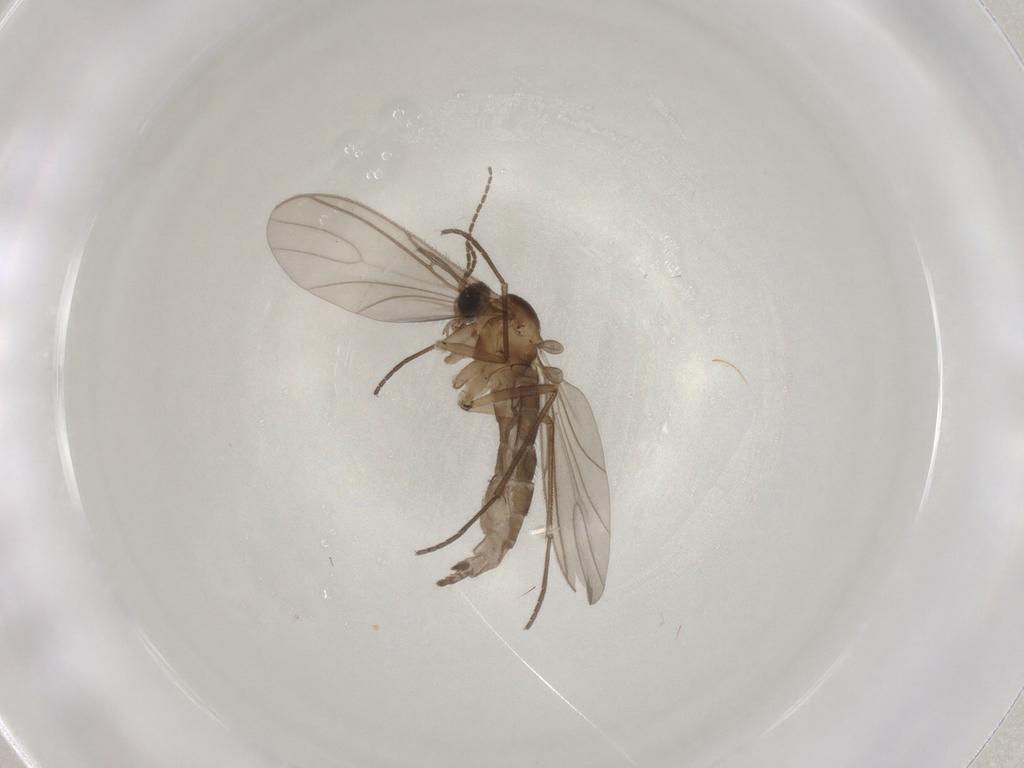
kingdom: Animalia
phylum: Arthropoda
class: Insecta
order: Diptera
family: Sciaridae
